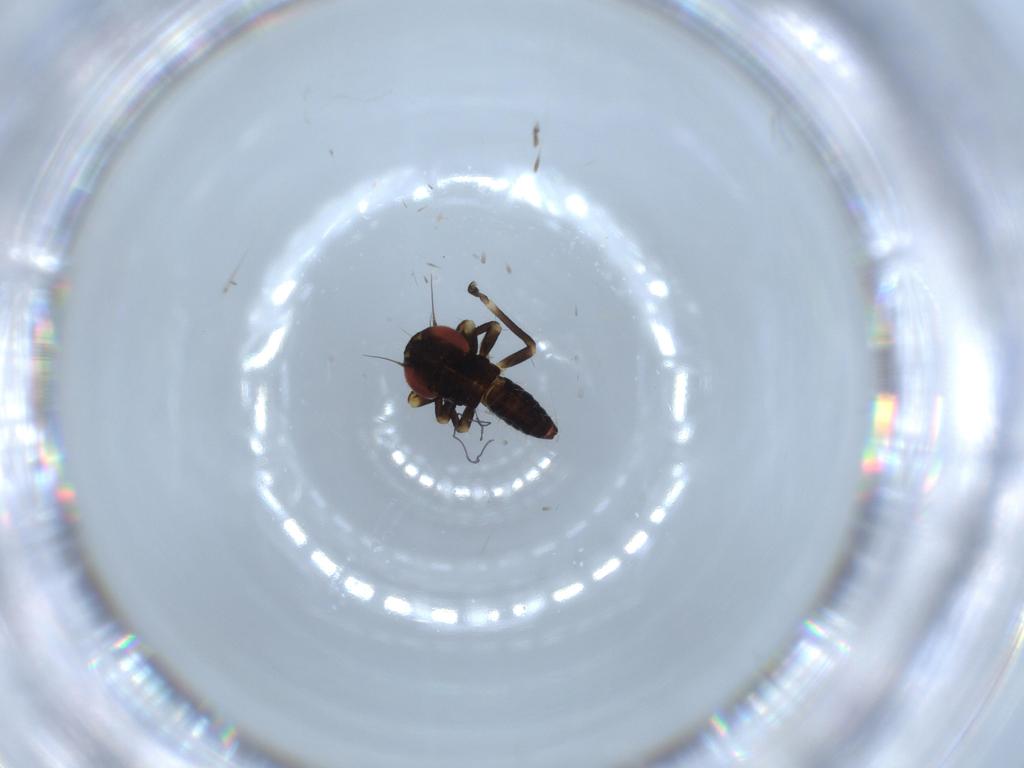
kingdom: Animalia
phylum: Arthropoda
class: Insecta
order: Hemiptera
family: Cicadellidae
